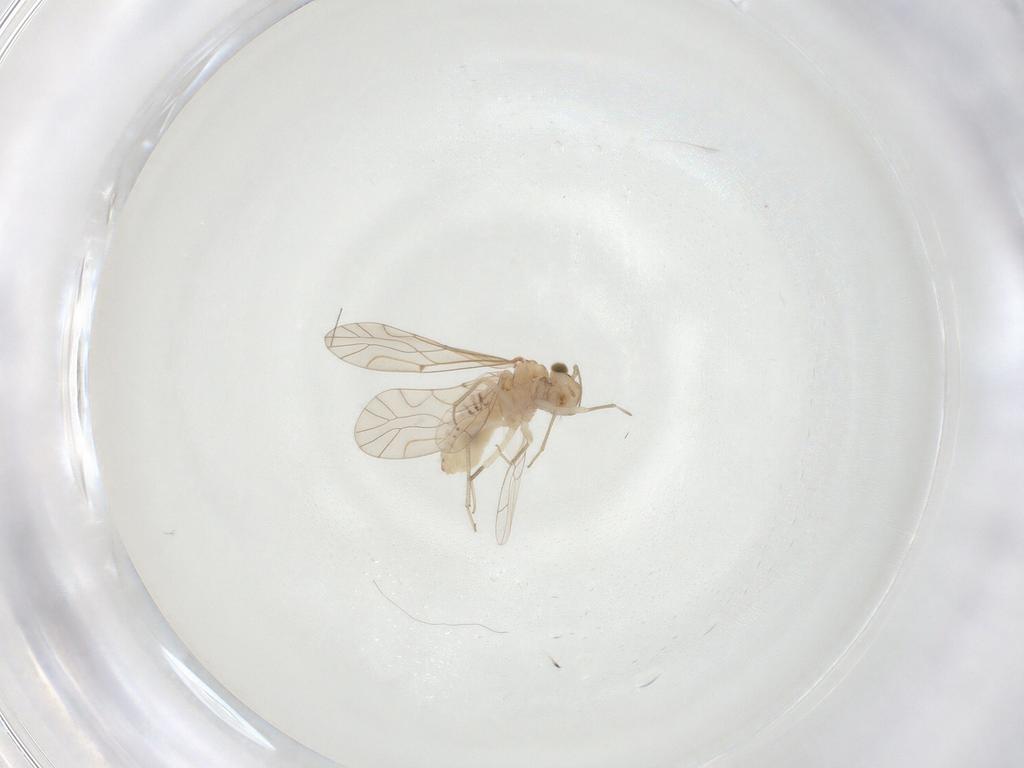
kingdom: Animalia
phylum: Arthropoda
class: Insecta
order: Psocodea
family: Lachesillidae
